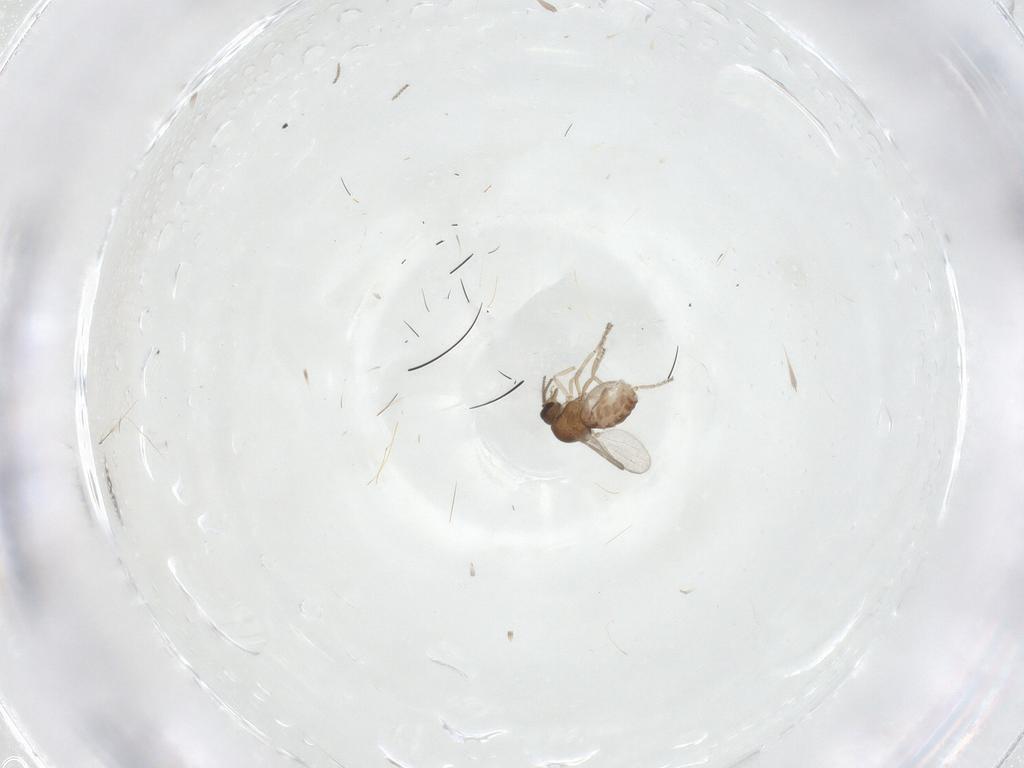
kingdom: Animalia
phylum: Arthropoda
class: Insecta
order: Diptera
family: Ceratopogonidae
